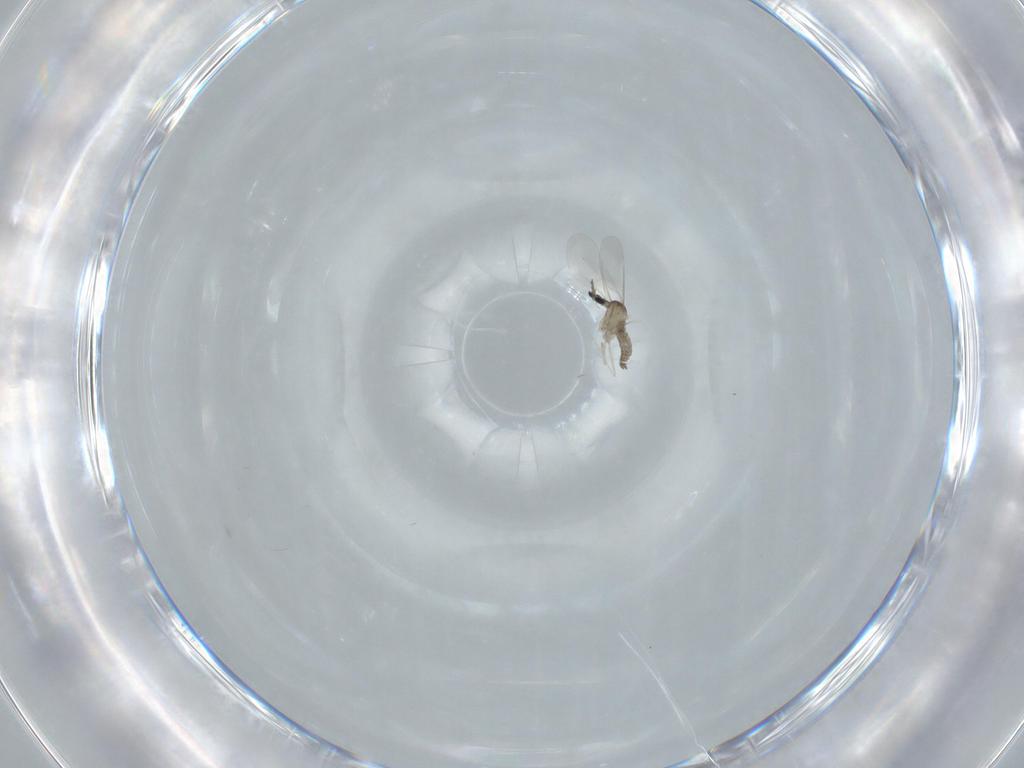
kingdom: Animalia
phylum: Arthropoda
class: Insecta
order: Diptera
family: Cecidomyiidae
